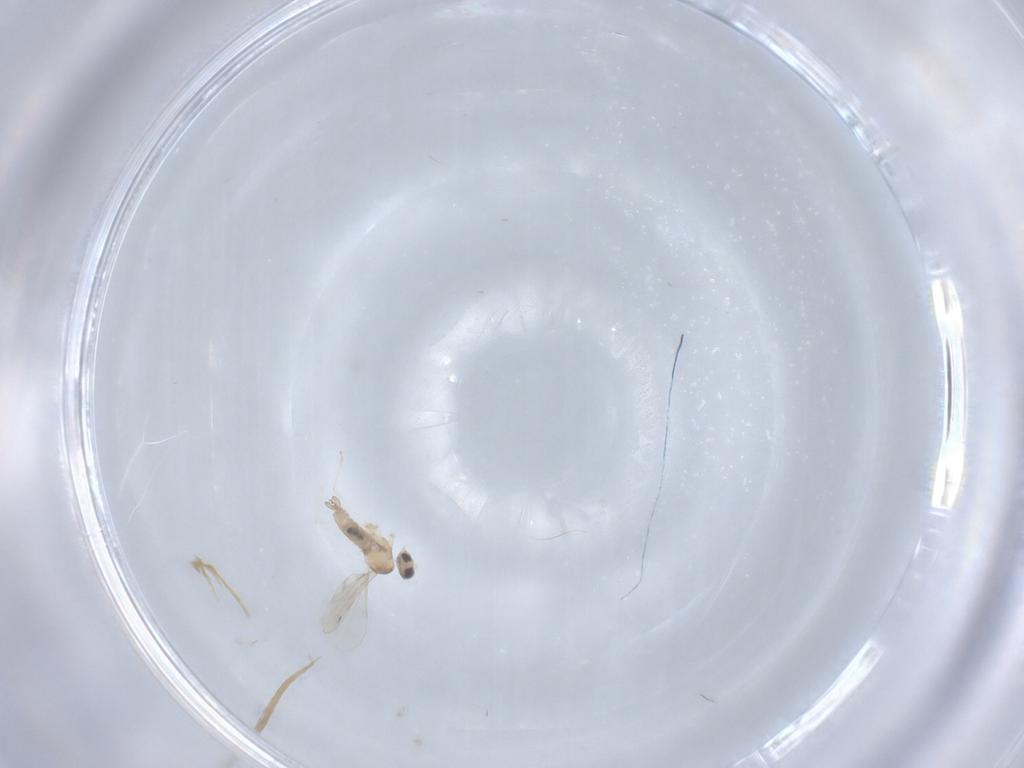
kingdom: Animalia
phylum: Arthropoda
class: Insecta
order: Diptera
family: Cecidomyiidae
